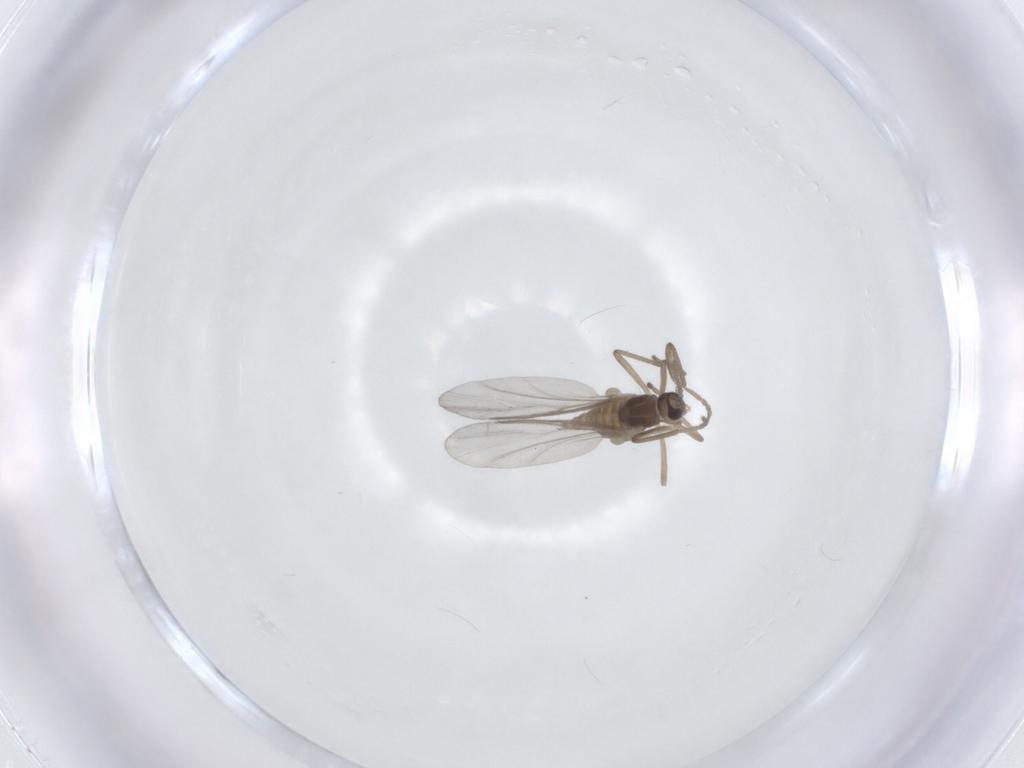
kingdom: Animalia
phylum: Arthropoda
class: Insecta
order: Diptera
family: Cecidomyiidae
